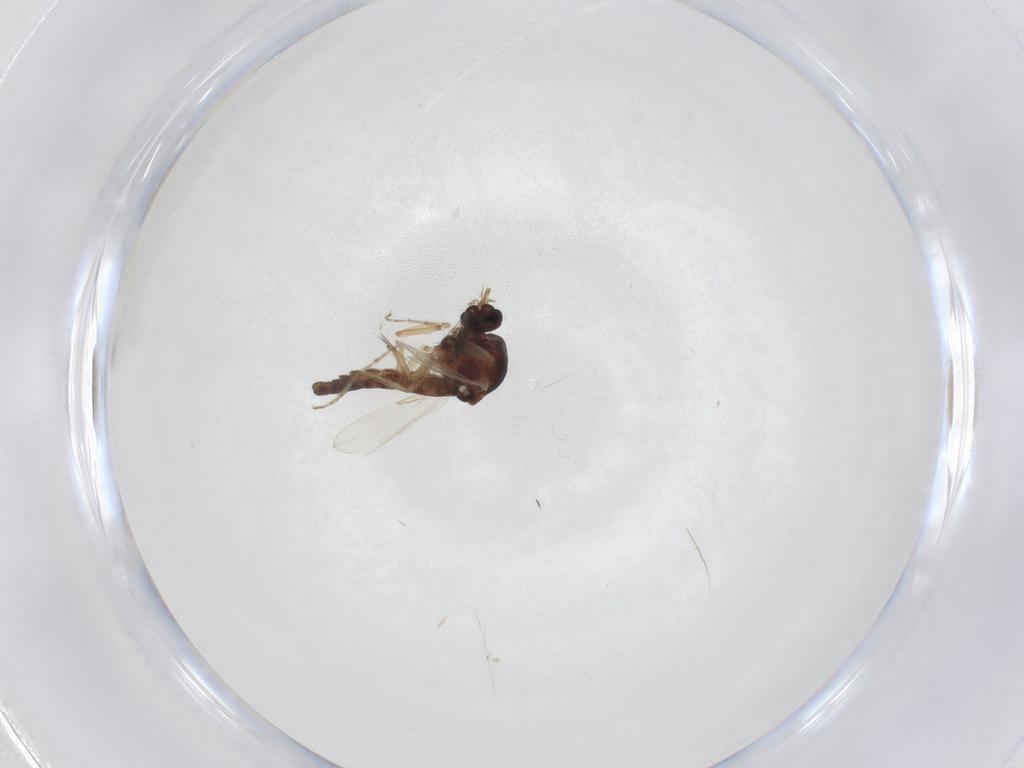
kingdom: Animalia
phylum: Arthropoda
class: Insecta
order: Diptera
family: Ceratopogonidae
